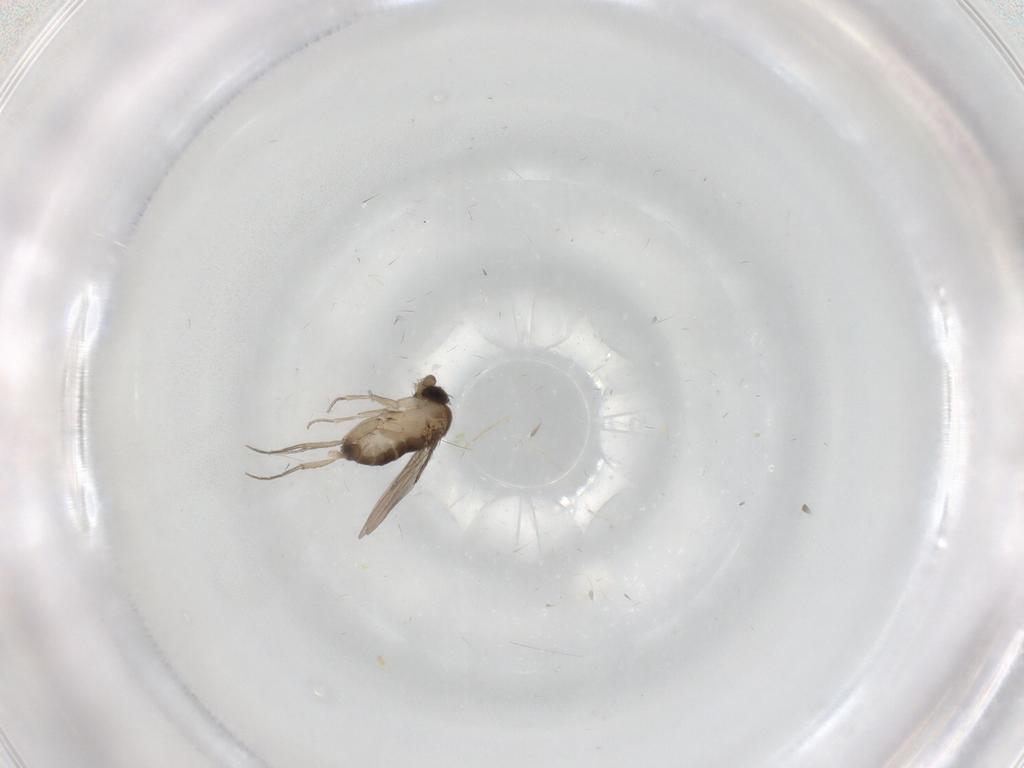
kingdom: Animalia
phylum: Arthropoda
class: Insecta
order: Diptera
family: Phoridae
